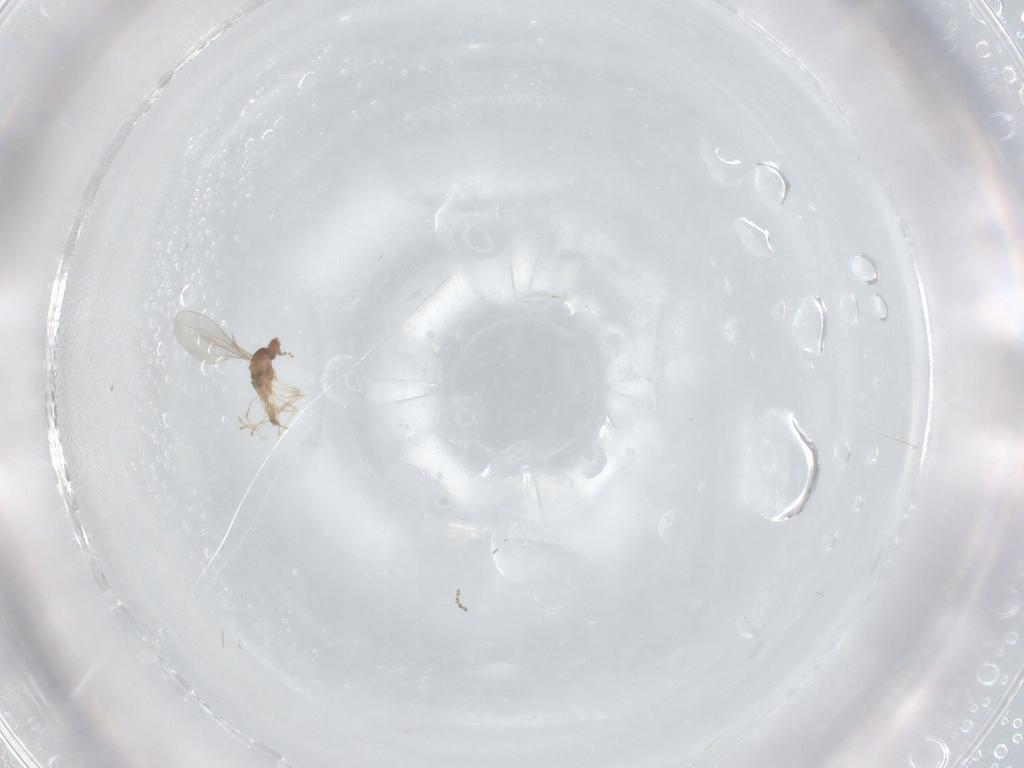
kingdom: Animalia
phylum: Arthropoda
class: Insecta
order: Diptera
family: Cecidomyiidae
